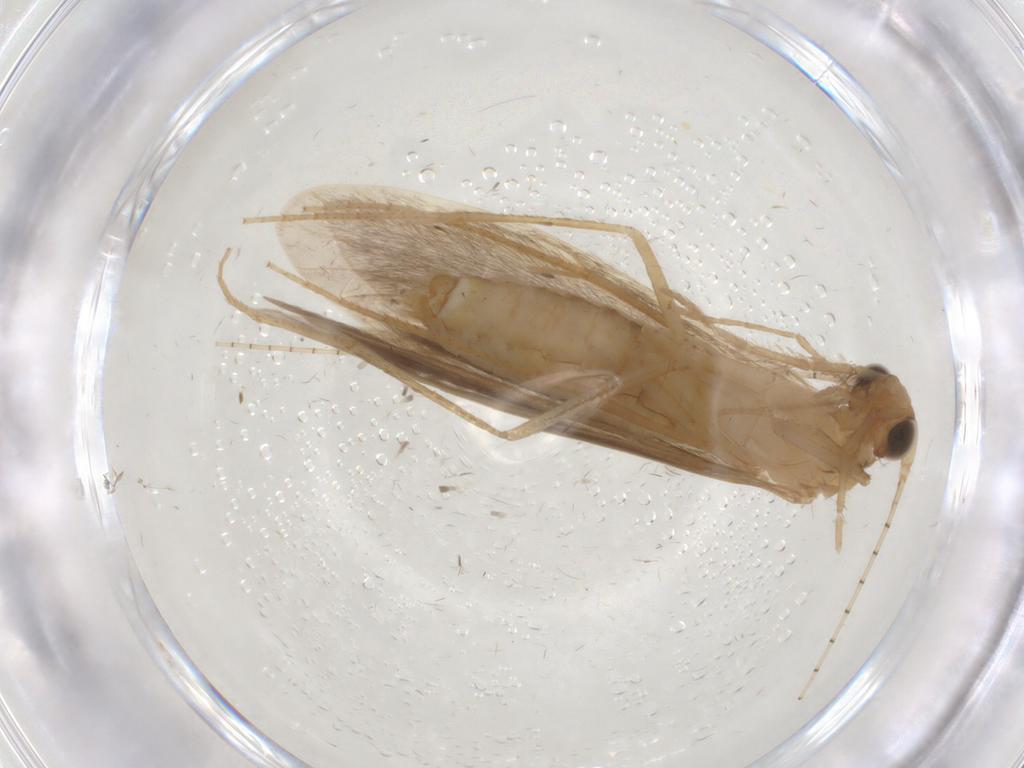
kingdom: Animalia
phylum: Arthropoda
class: Insecta
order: Trichoptera
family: Leptoceridae
